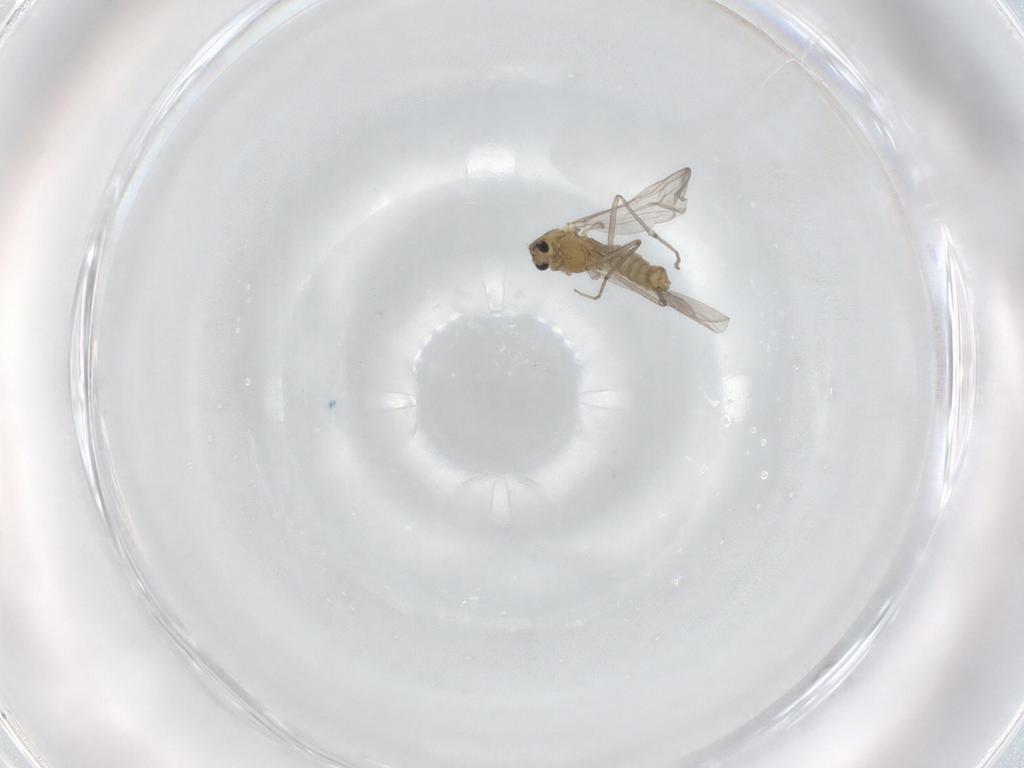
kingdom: Animalia
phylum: Arthropoda
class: Insecta
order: Diptera
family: Chironomidae
